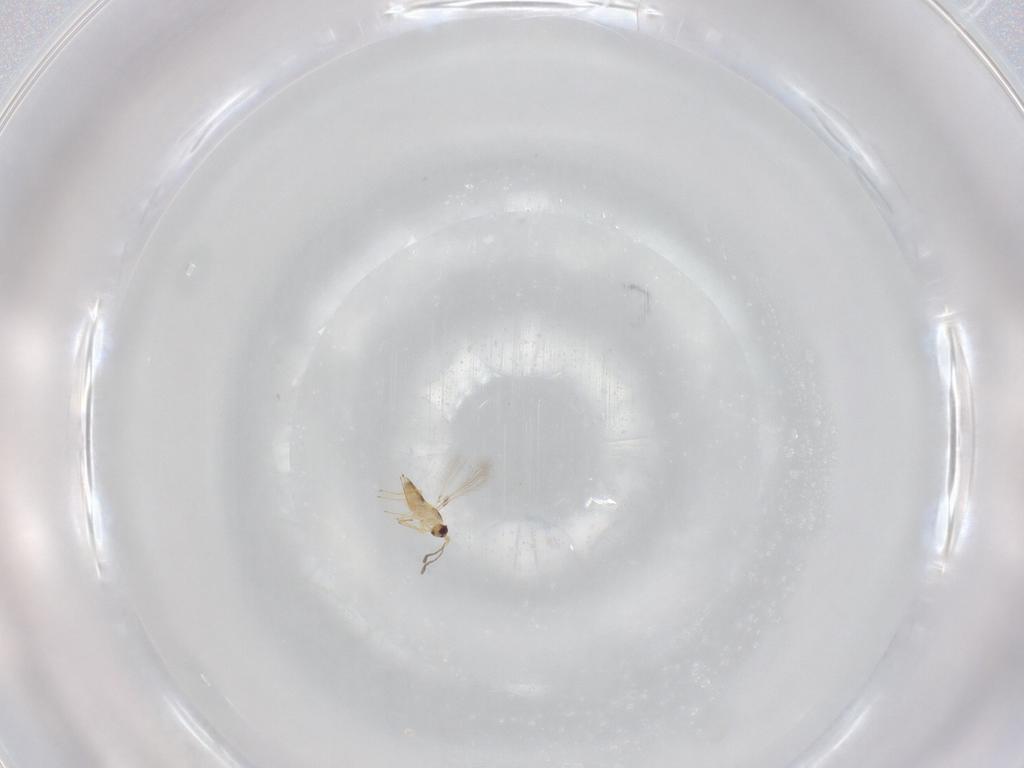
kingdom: Animalia
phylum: Arthropoda
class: Insecta
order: Hymenoptera
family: Mymaridae
